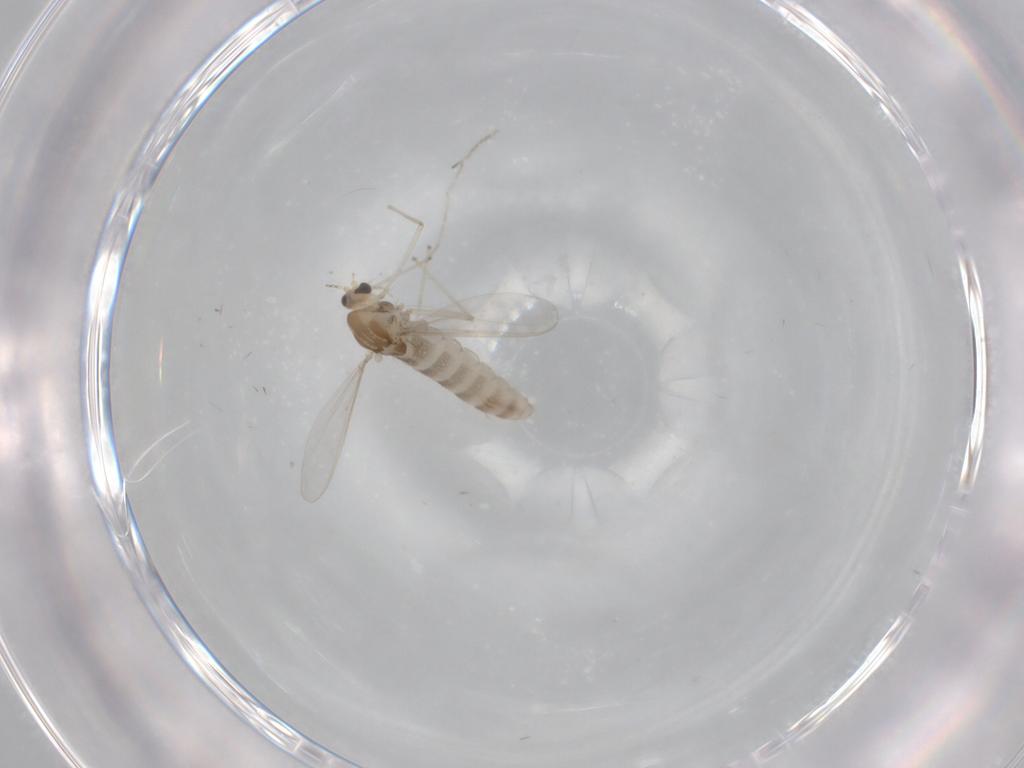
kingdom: Animalia
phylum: Arthropoda
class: Insecta
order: Diptera
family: Chironomidae
